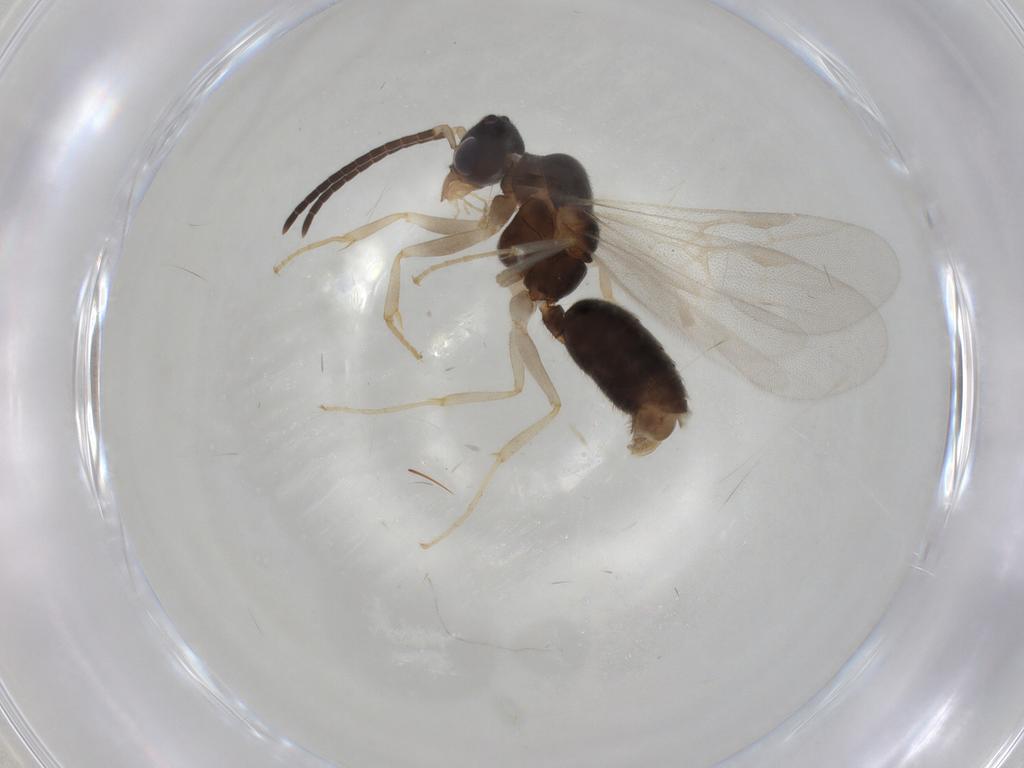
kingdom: Animalia
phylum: Arthropoda
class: Insecta
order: Hymenoptera
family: Formicidae
